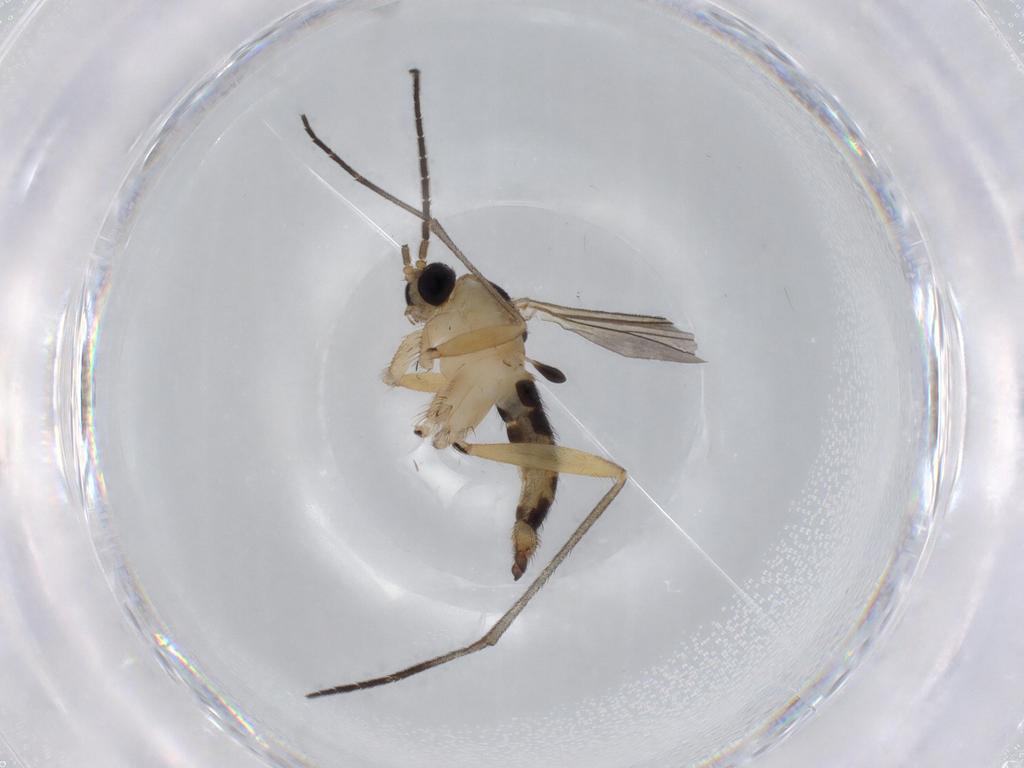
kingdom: Animalia
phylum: Arthropoda
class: Insecta
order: Diptera
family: Sciaridae
